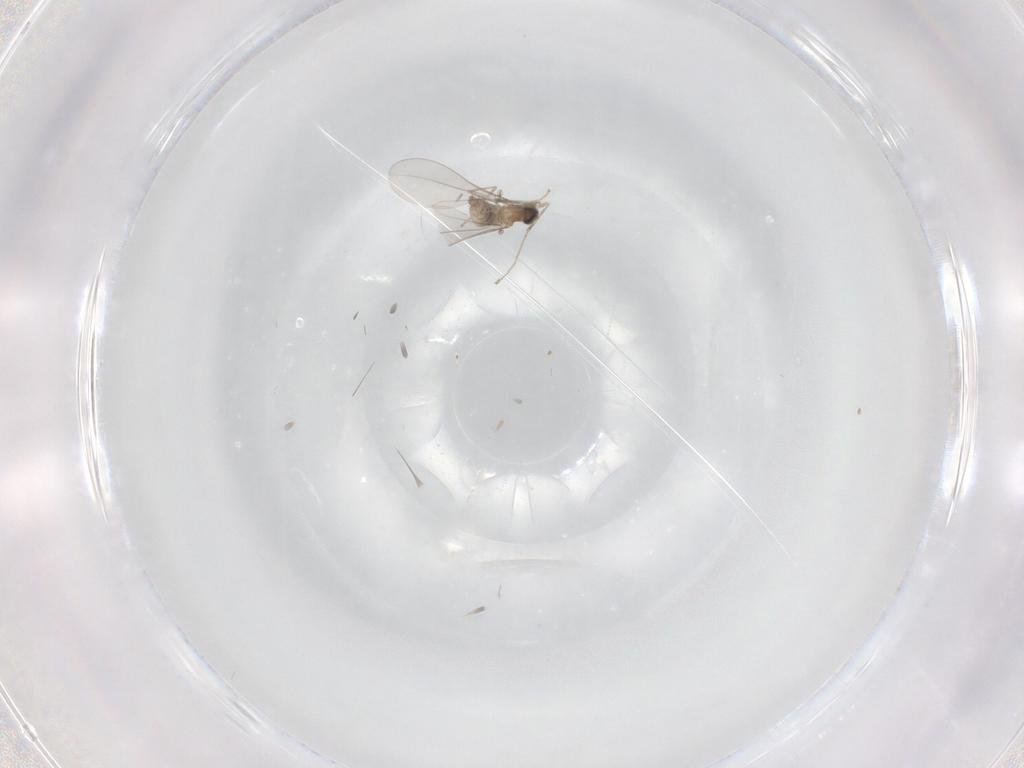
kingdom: Animalia
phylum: Arthropoda
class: Insecta
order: Diptera
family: Cecidomyiidae
